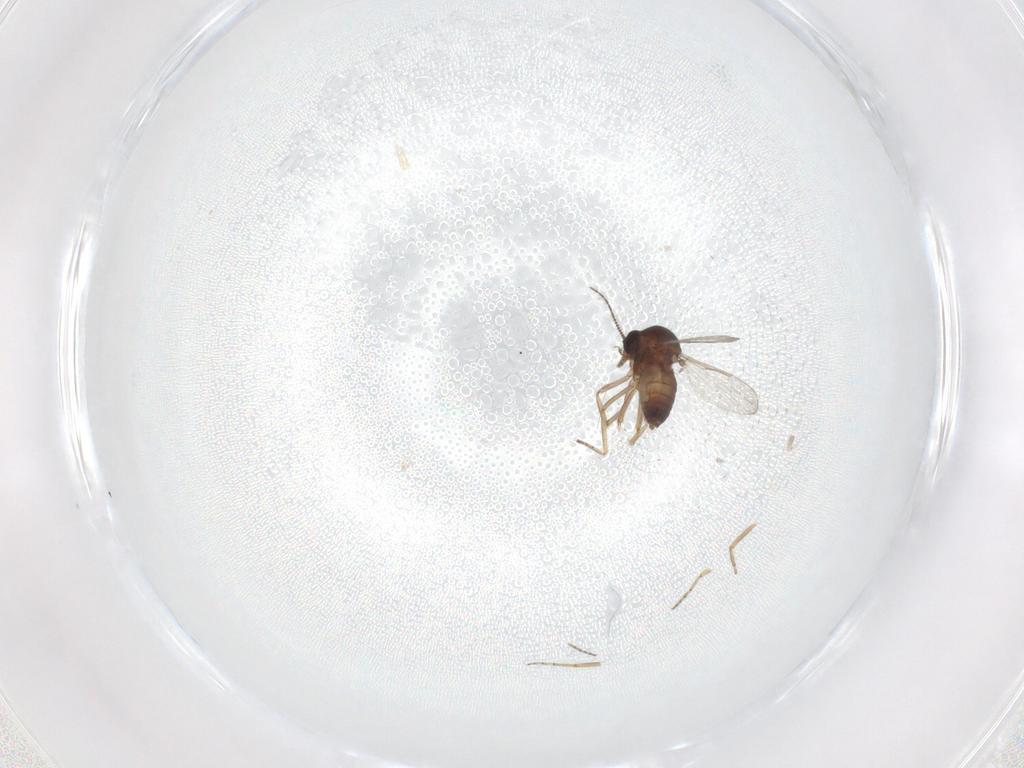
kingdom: Animalia
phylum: Arthropoda
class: Insecta
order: Diptera
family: Ceratopogonidae
